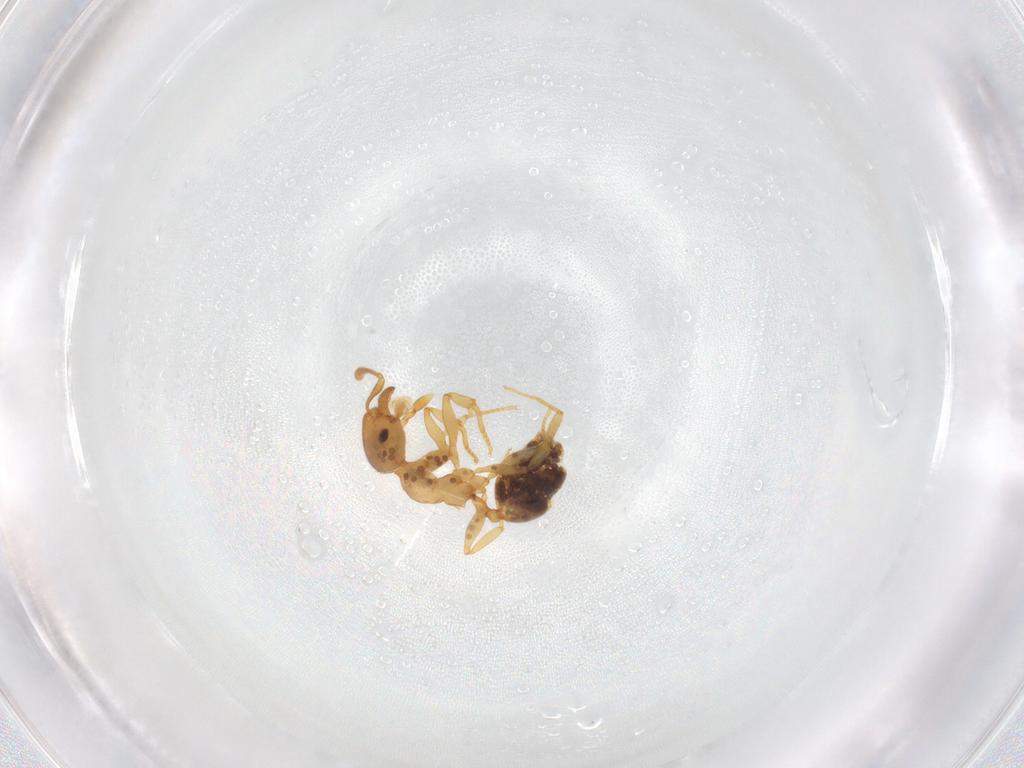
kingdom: Animalia
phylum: Arthropoda
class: Insecta
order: Hymenoptera
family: Formicidae
